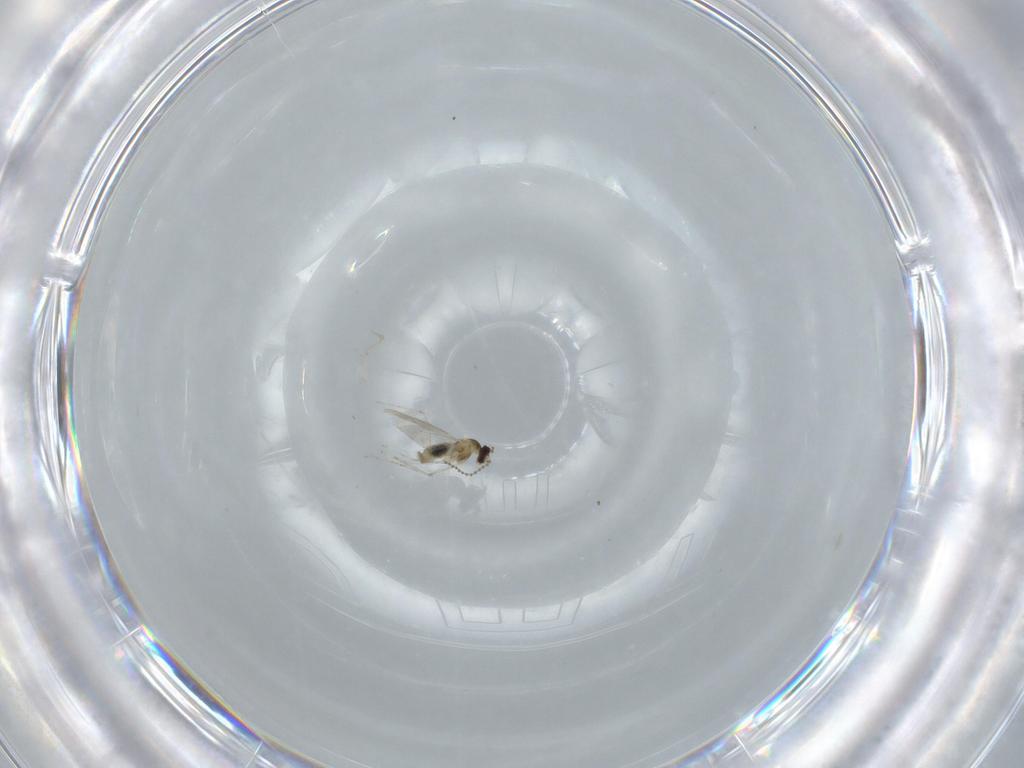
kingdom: Animalia
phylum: Arthropoda
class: Insecta
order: Diptera
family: Cecidomyiidae
